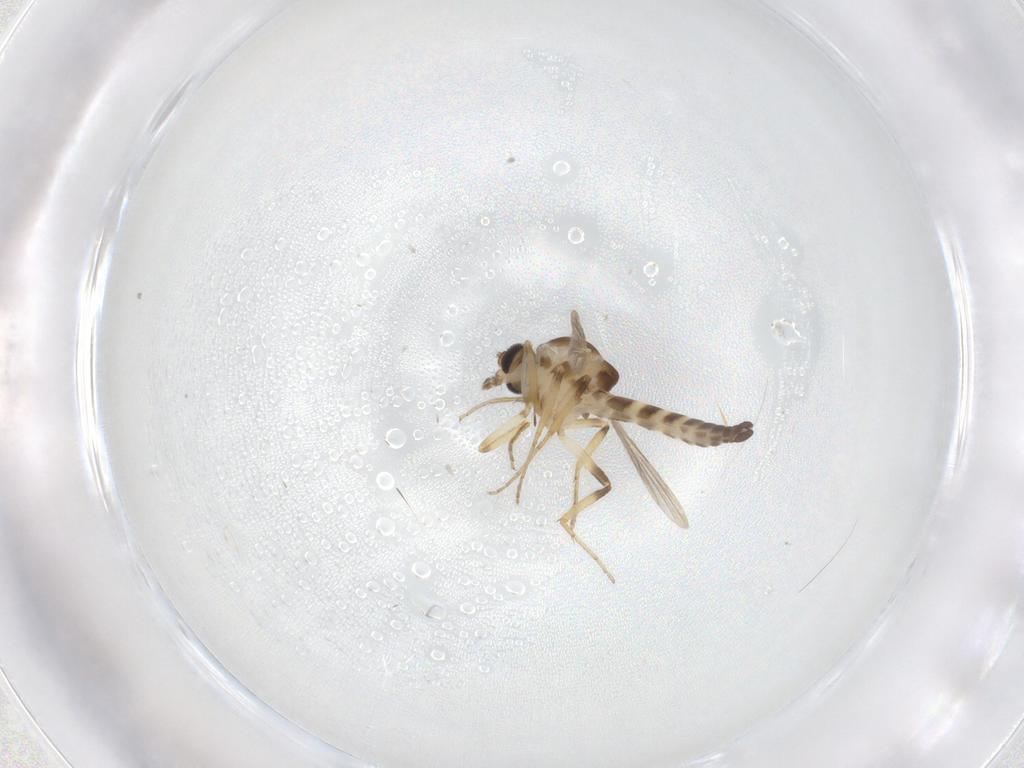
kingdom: Animalia
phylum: Arthropoda
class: Insecta
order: Diptera
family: Ceratopogonidae
